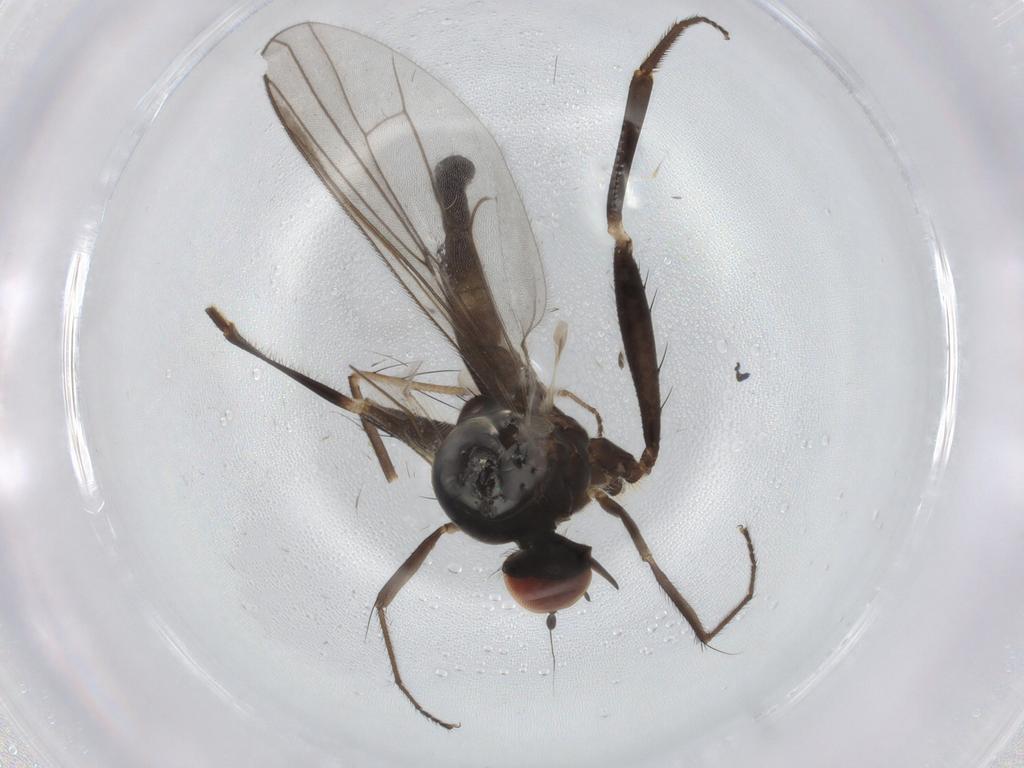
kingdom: Animalia
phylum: Arthropoda
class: Insecta
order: Diptera
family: Hybotidae
